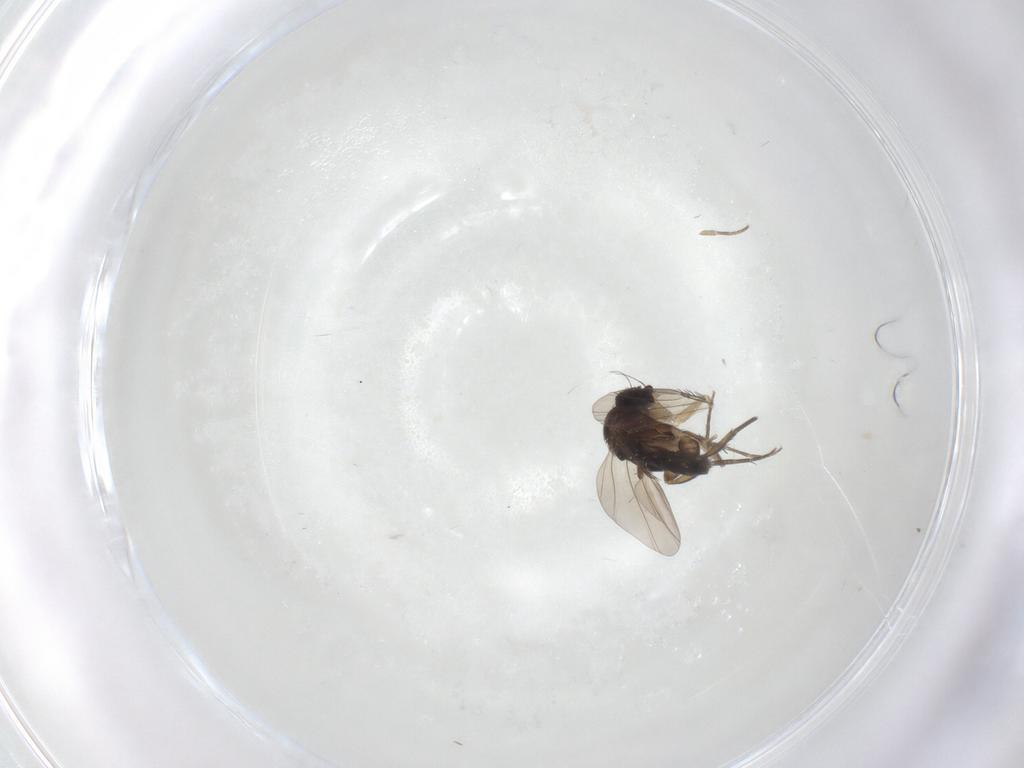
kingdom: Animalia
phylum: Arthropoda
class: Insecta
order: Diptera
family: Phoridae
